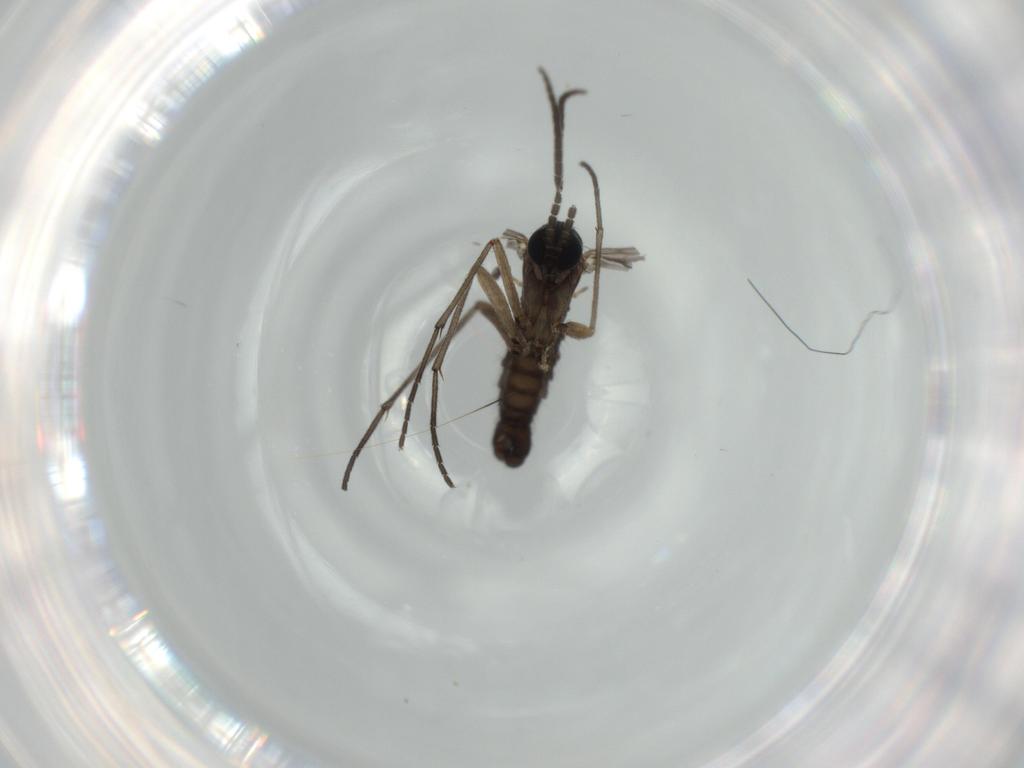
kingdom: Animalia
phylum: Arthropoda
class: Insecta
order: Diptera
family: Sciaridae
